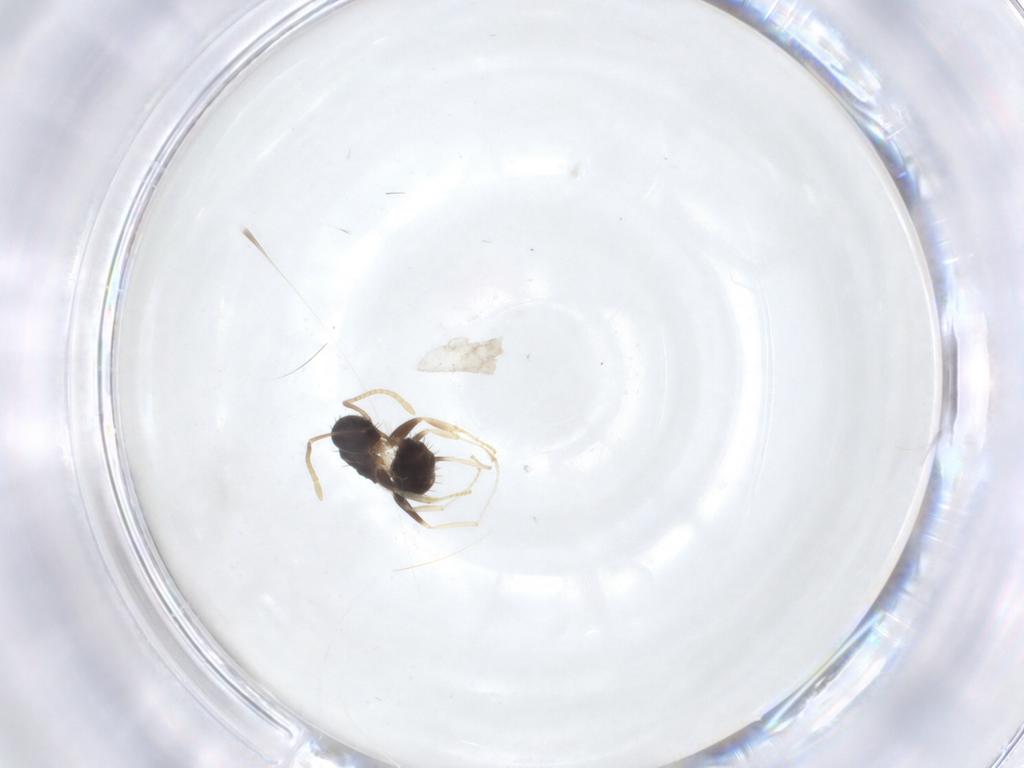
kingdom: Animalia
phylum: Arthropoda
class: Insecta
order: Hymenoptera
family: Formicidae
